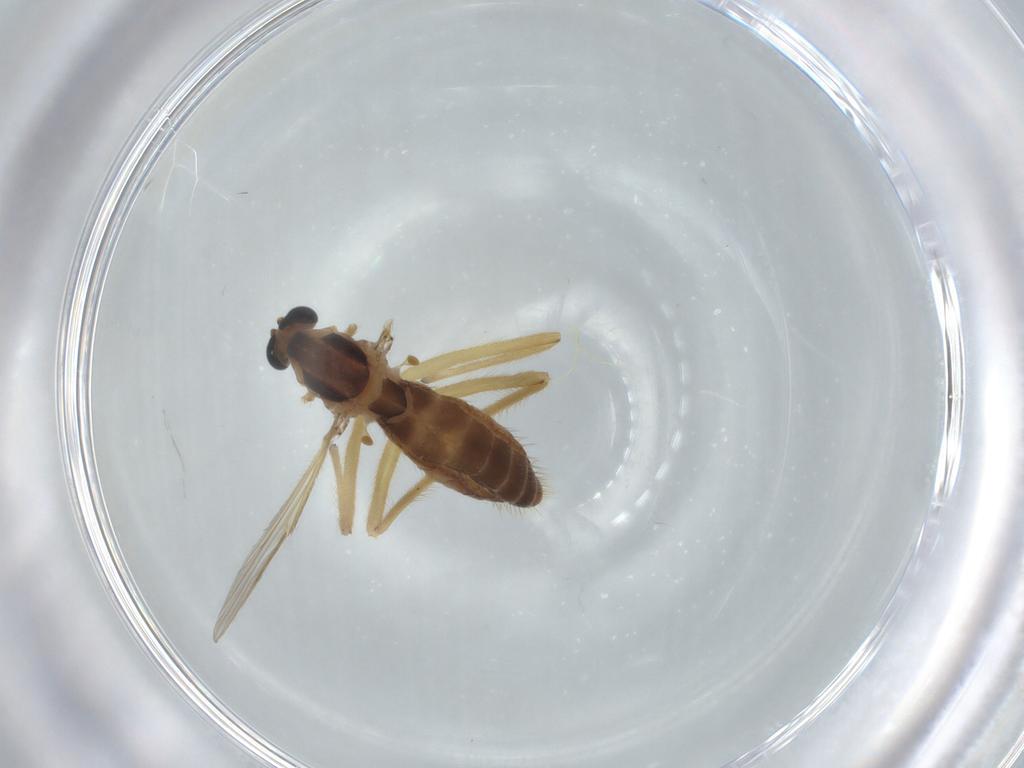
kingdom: Animalia
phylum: Arthropoda
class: Insecta
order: Diptera
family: Chironomidae
